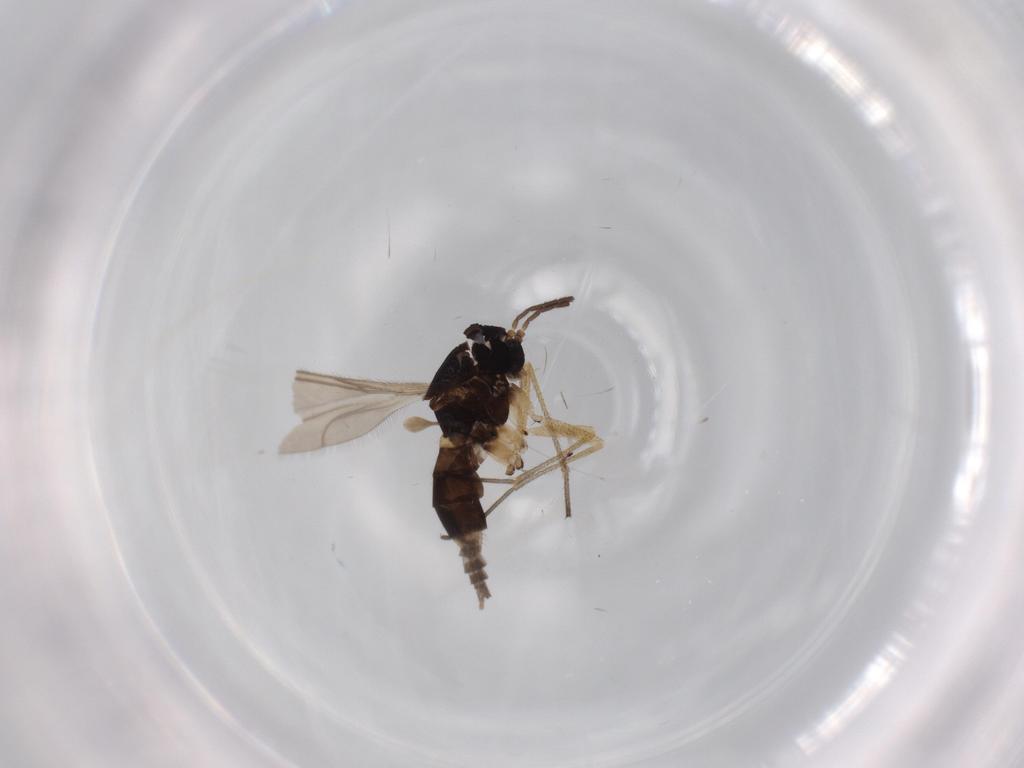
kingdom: Animalia
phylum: Arthropoda
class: Insecta
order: Diptera
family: Sciaridae
